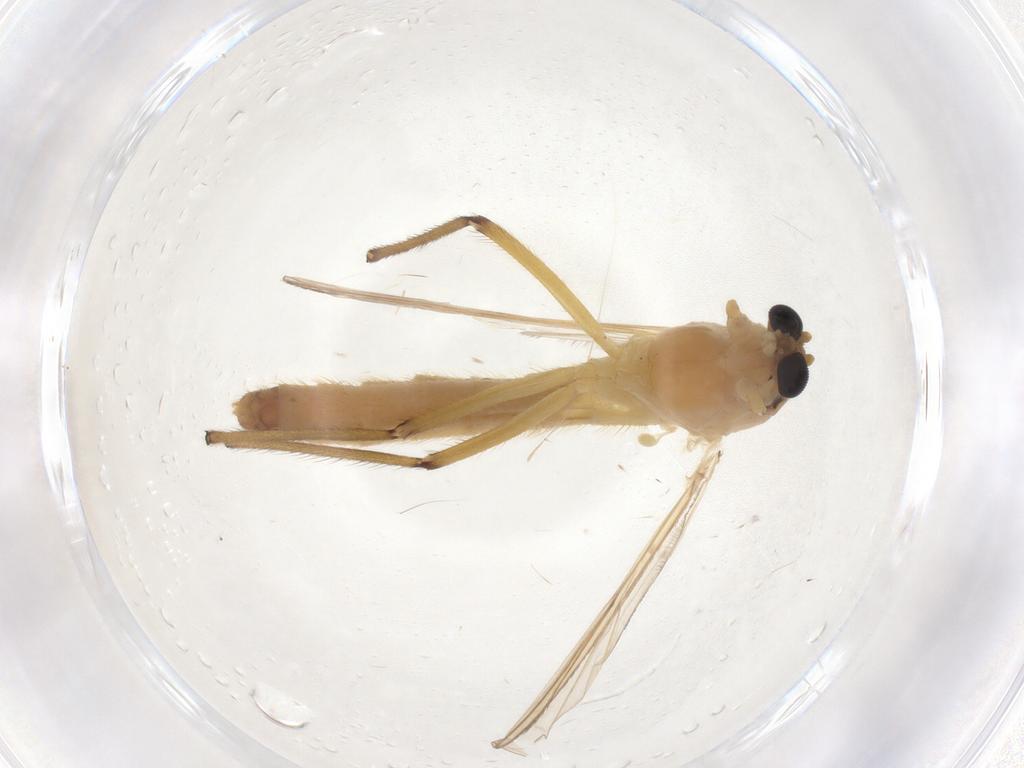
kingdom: Animalia
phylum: Arthropoda
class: Insecta
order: Diptera
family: Chironomidae
